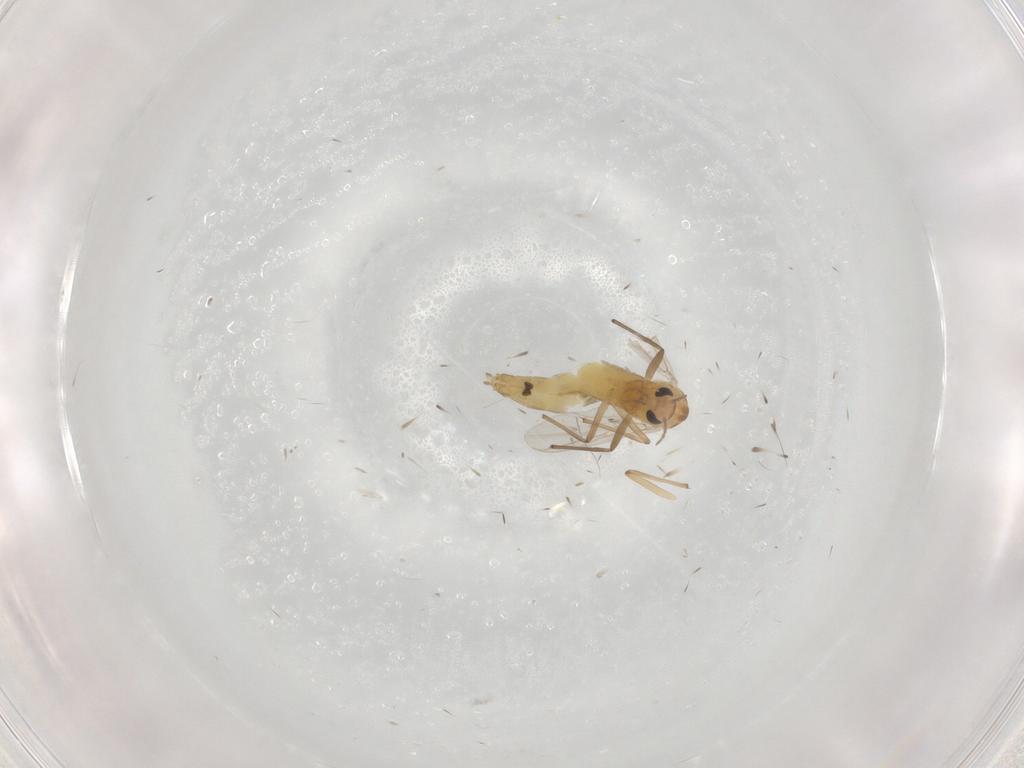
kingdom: Animalia
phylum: Arthropoda
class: Insecta
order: Diptera
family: Chironomidae
